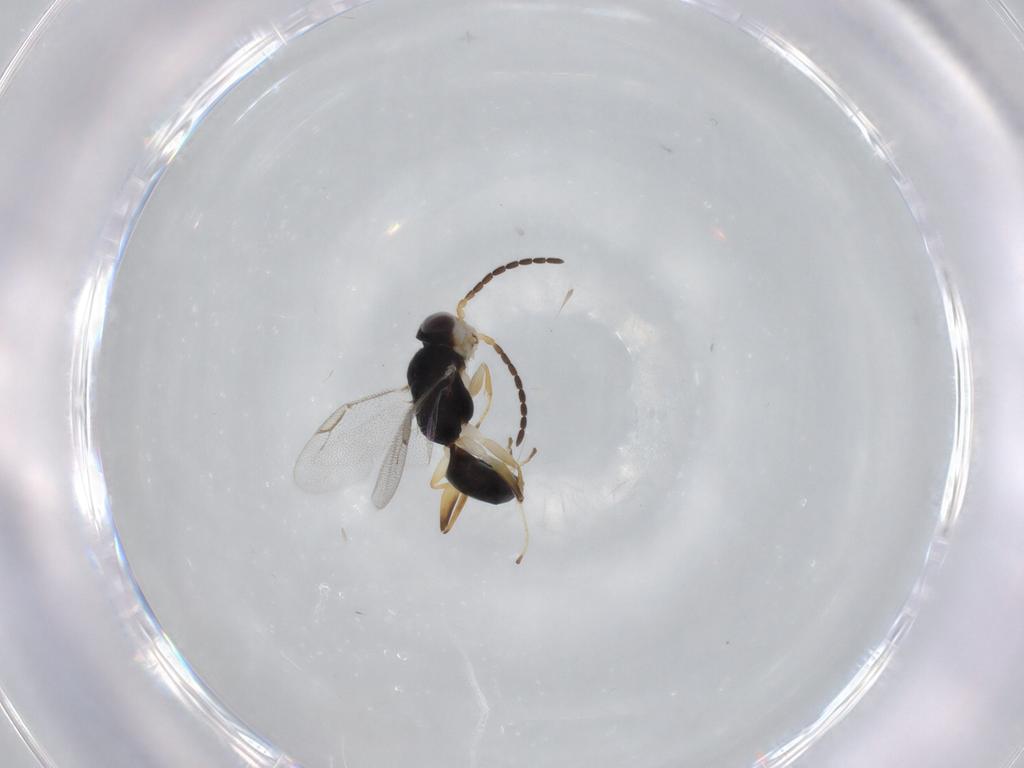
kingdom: Animalia
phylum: Arthropoda
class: Insecta
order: Hymenoptera
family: Dryinidae
